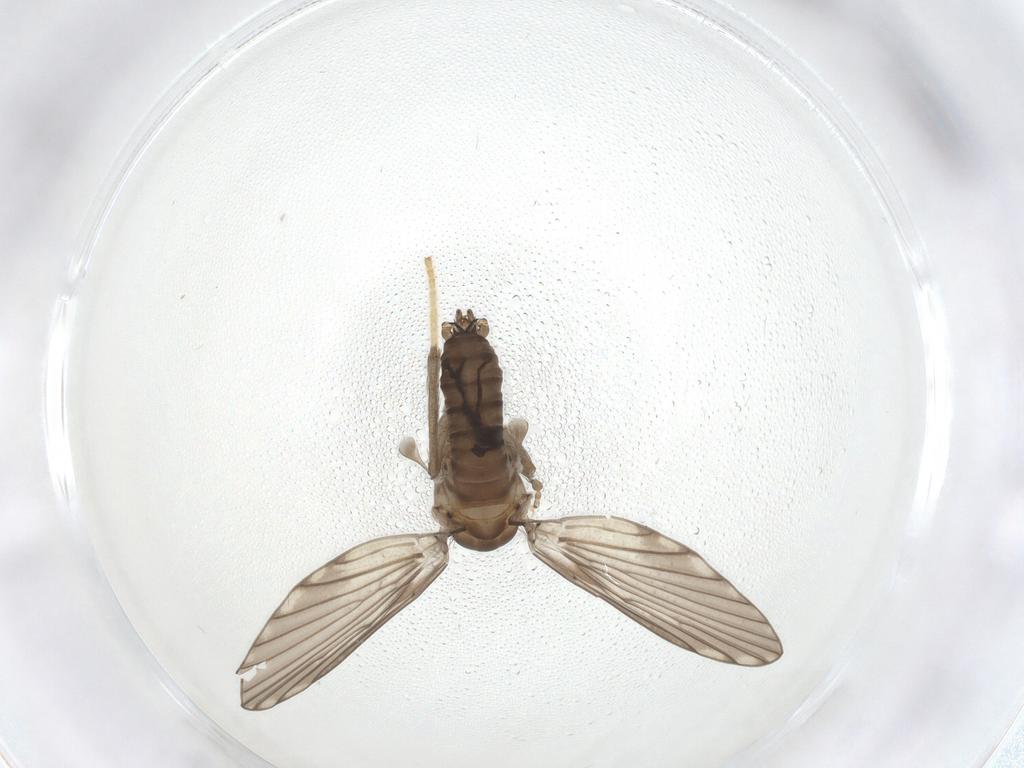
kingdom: Animalia
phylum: Arthropoda
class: Insecta
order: Diptera
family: Psychodidae
